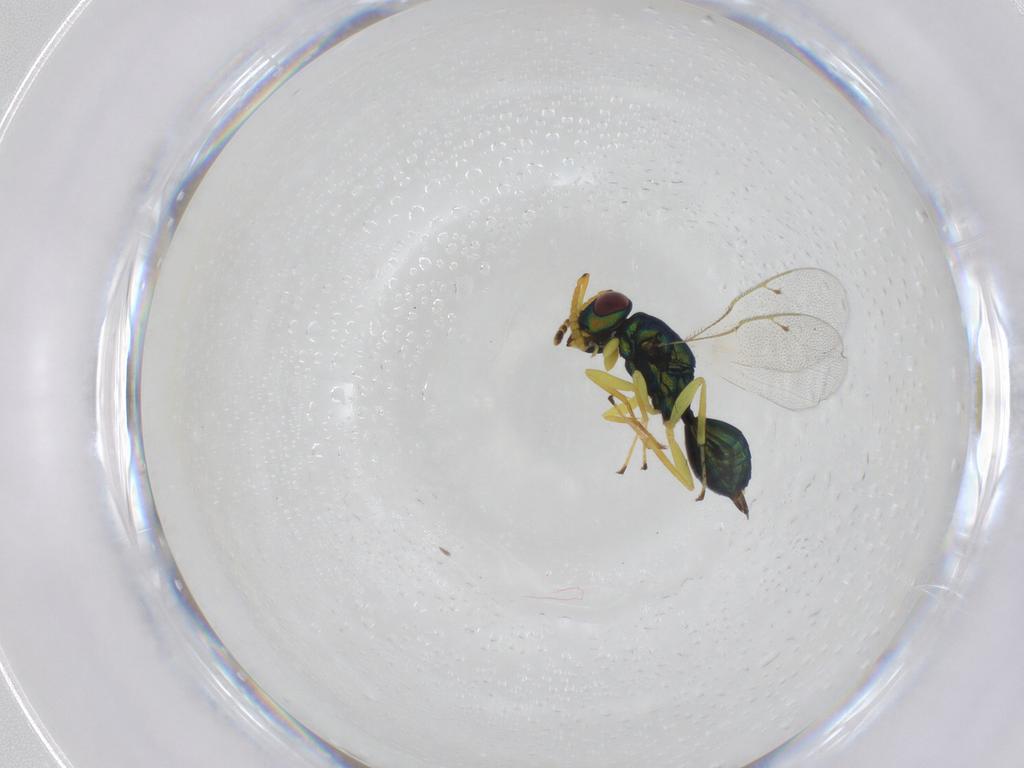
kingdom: Animalia
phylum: Arthropoda
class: Insecta
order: Hymenoptera
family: Pteromalidae
